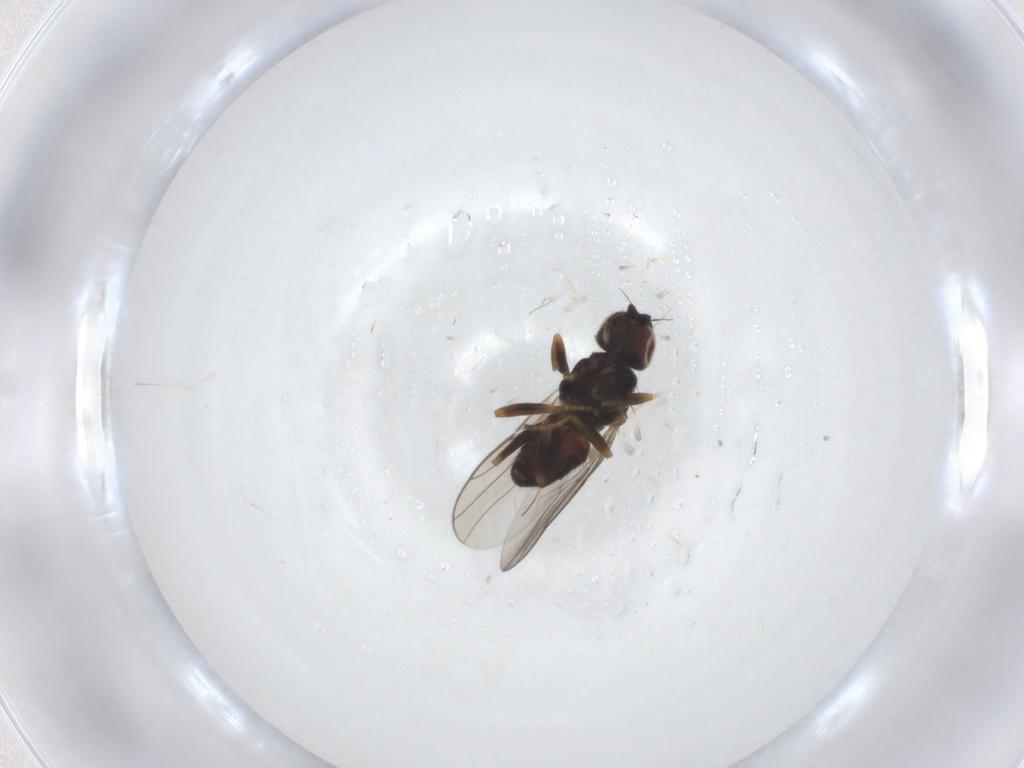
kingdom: Animalia
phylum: Arthropoda
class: Insecta
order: Diptera
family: Chloropidae
